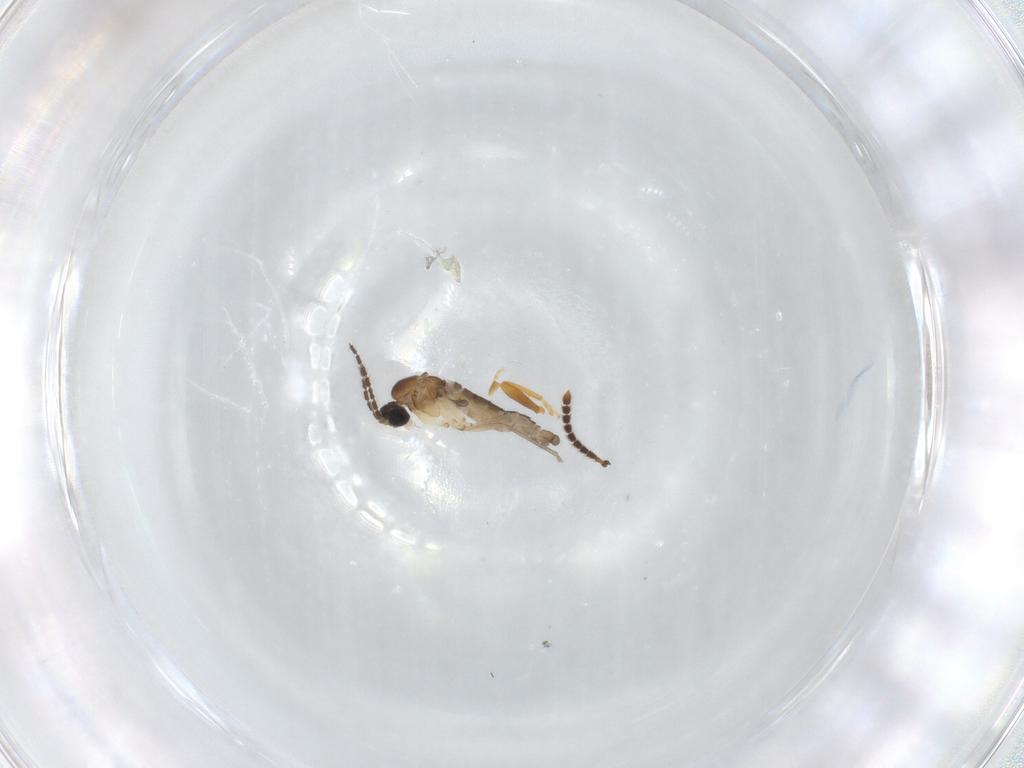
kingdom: Animalia
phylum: Arthropoda
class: Insecta
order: Diptera
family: Sciaridae
